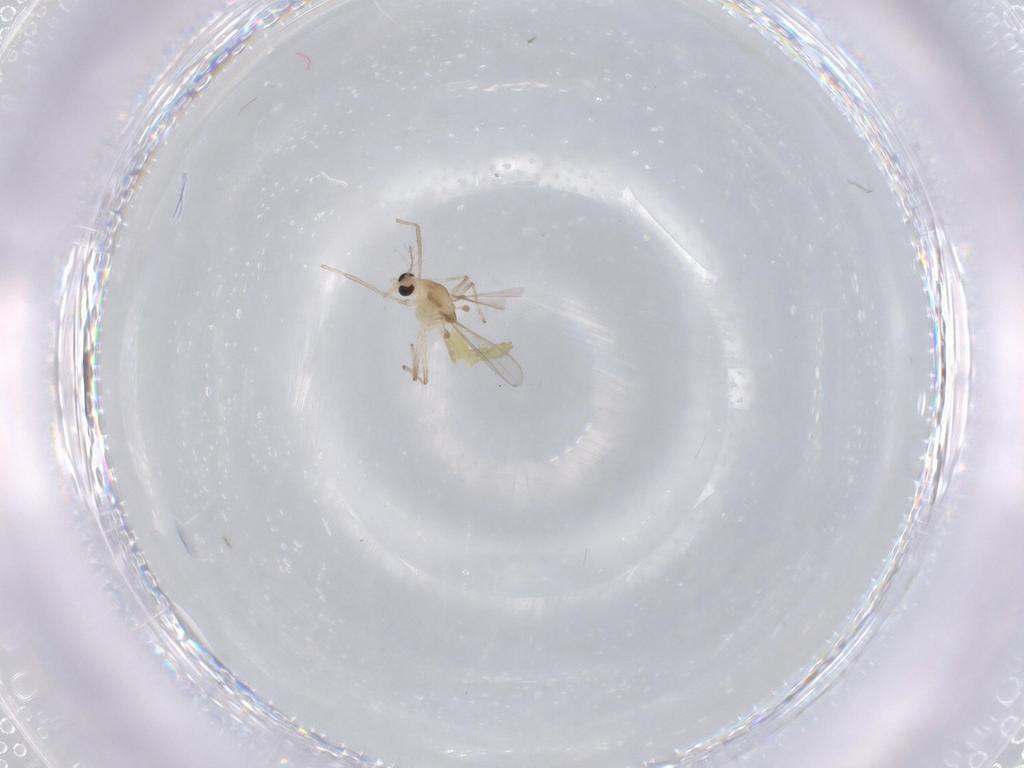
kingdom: Animalia
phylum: Arthropoda
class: Insecta
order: Diptera
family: Chironomidae
